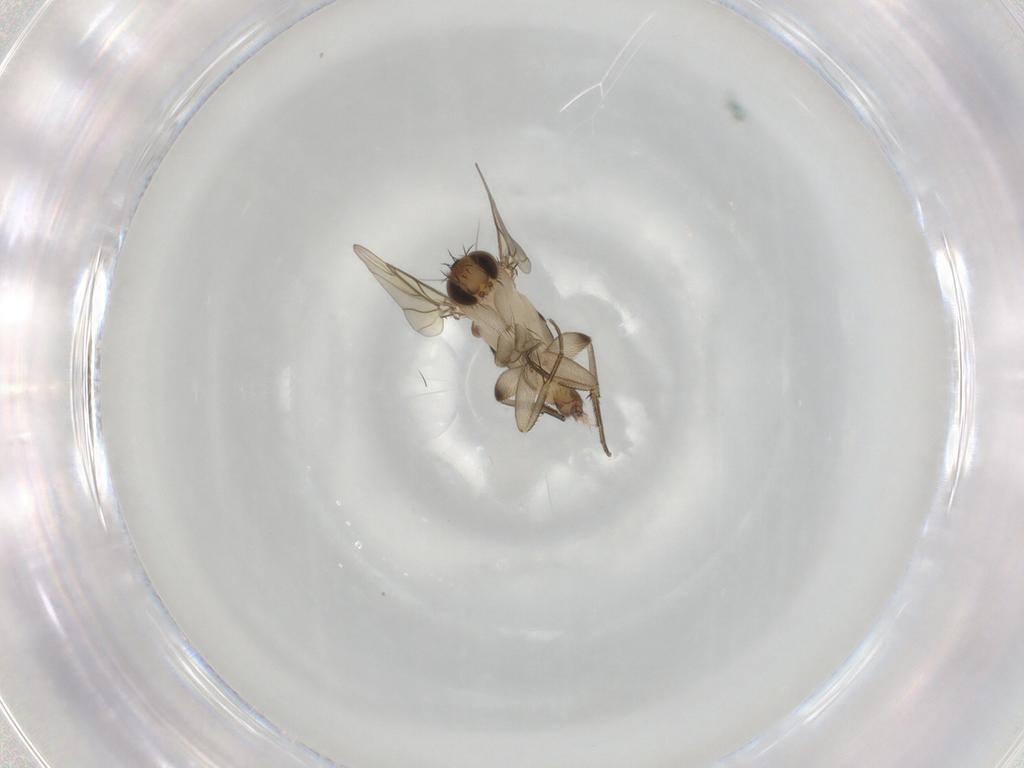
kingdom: Animalia
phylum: Arthropoda
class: Insecta
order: Diptera
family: Phoridae
